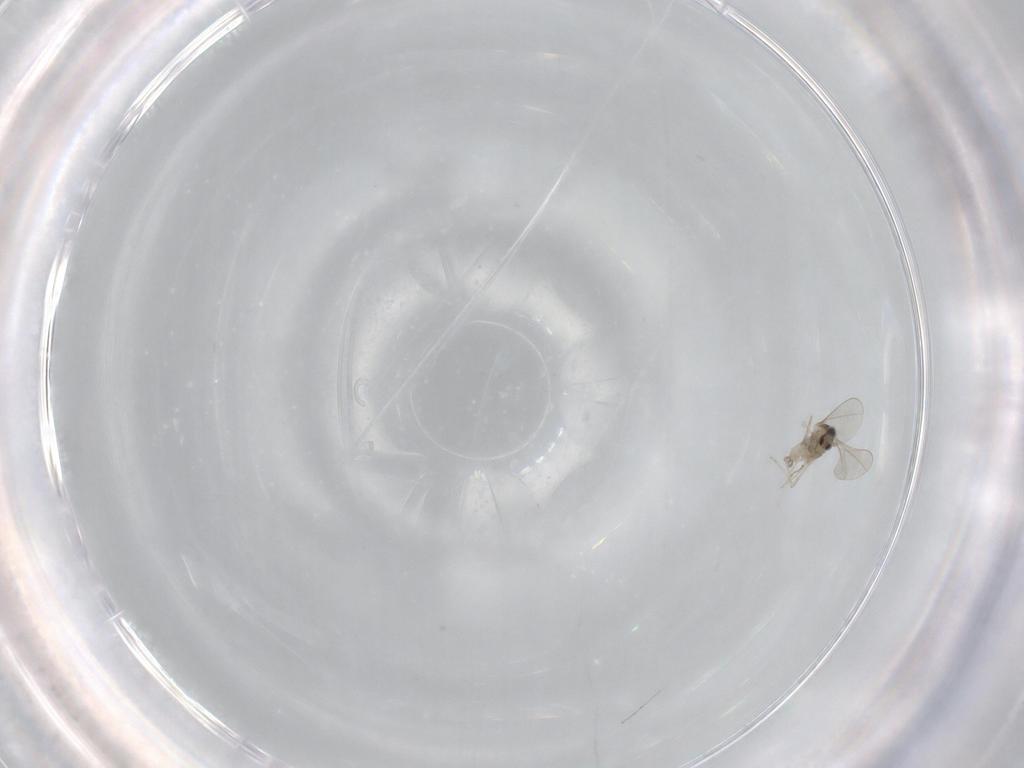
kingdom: Animalia
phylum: Arthropoda
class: Insecta
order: Diptera
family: Cecidomyiidae
